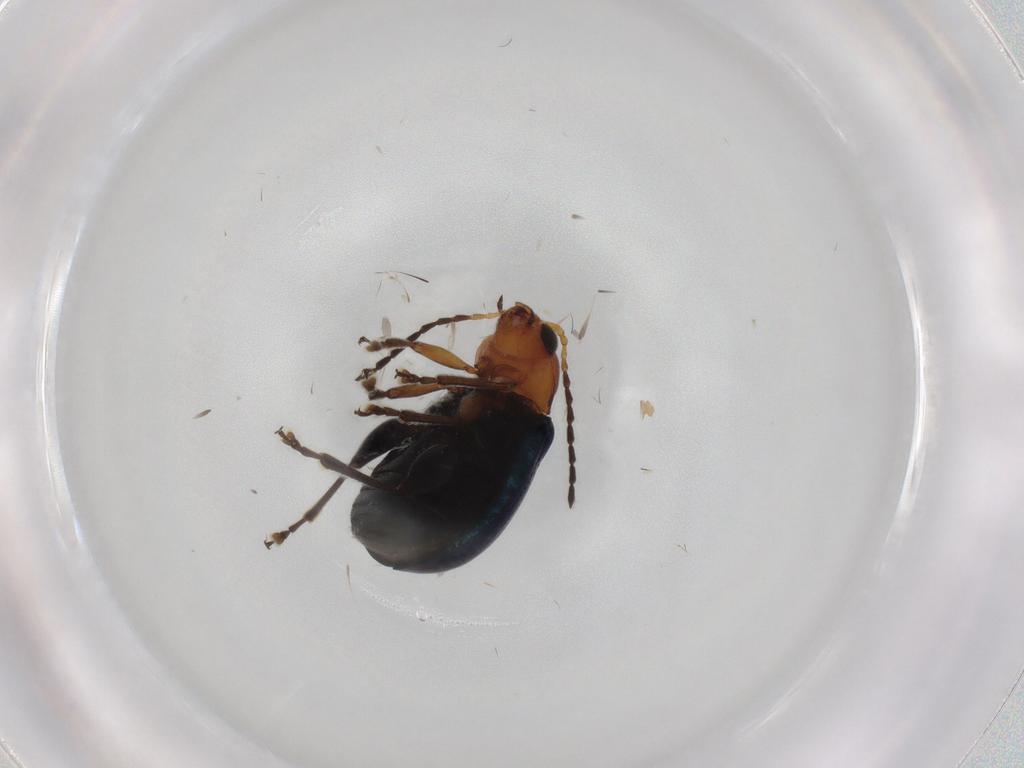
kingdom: Animalia
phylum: Arthropoda
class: Insecta
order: Coleoptera
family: Chrysomelidae
